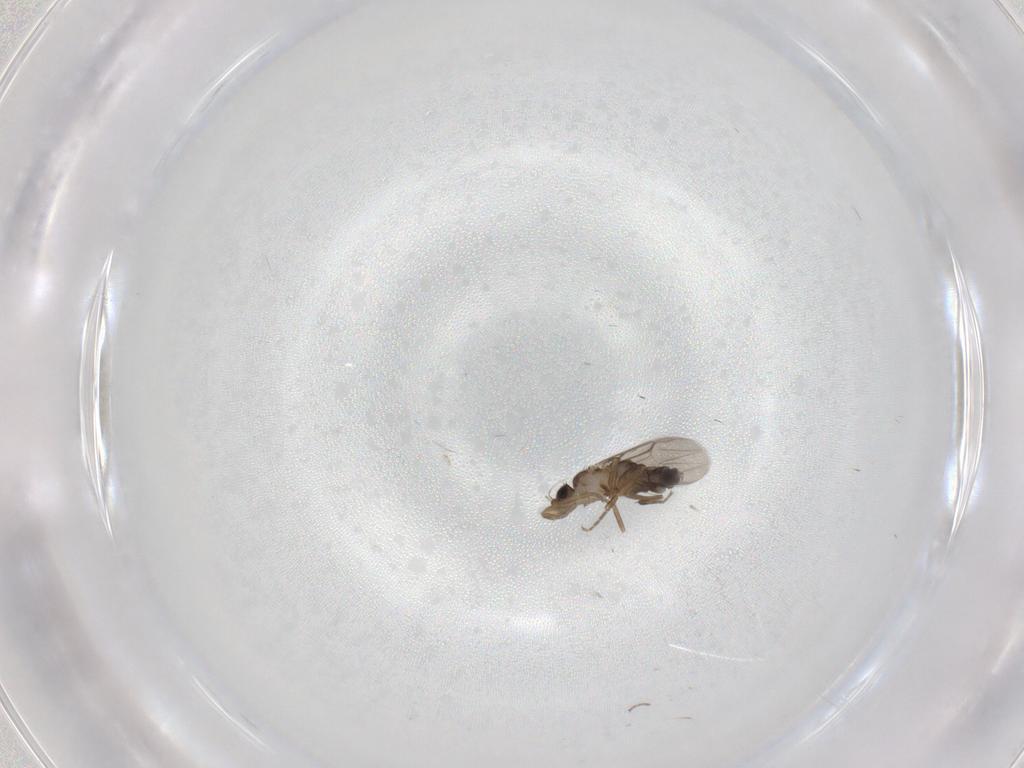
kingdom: Animalia
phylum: Arthropoda
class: Insecta
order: Diptera
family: Phoridae
